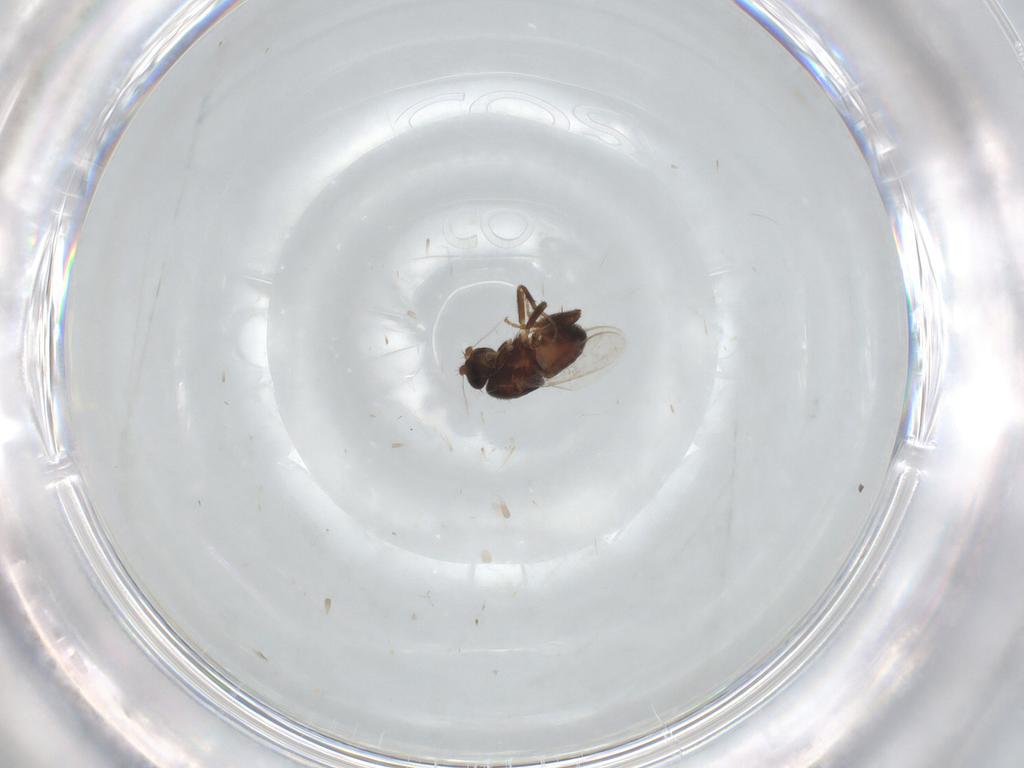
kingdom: Animalia
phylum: Arthropoda
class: Insecta
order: Diptera
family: Sphaeroceridae
